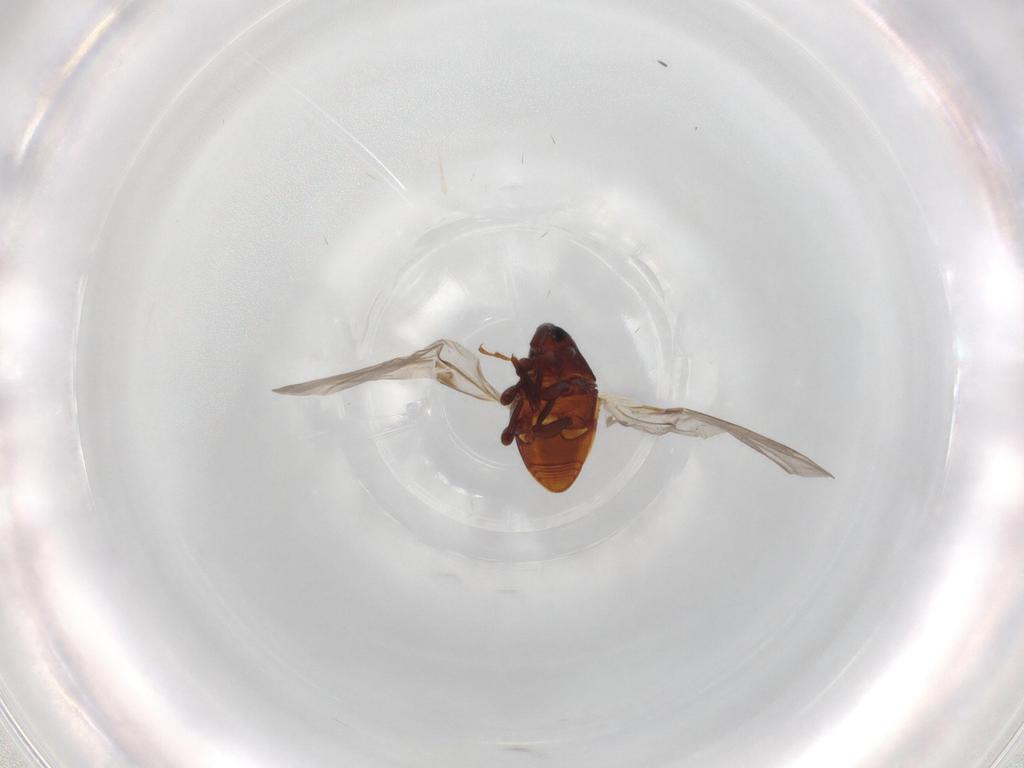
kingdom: Animalia
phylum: Arthropoda
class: Insecta
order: Coleoptera
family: Curculionidae
